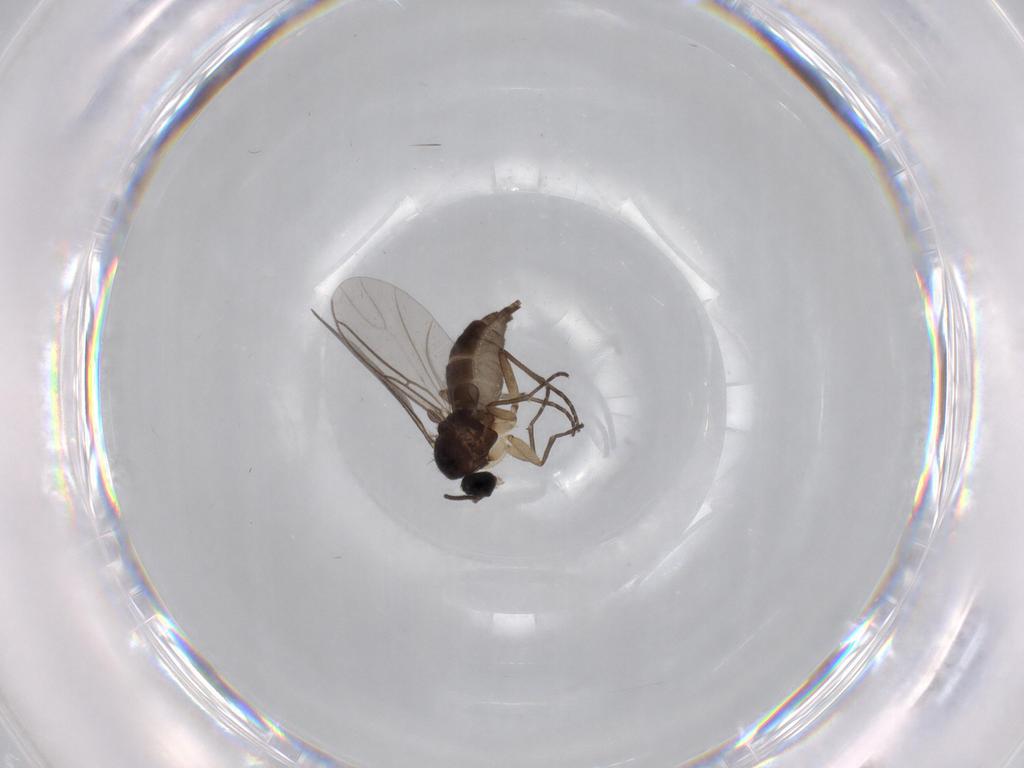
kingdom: Animalia
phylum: Arthropoda
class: Insecta
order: Diptera
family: Sciaridae
